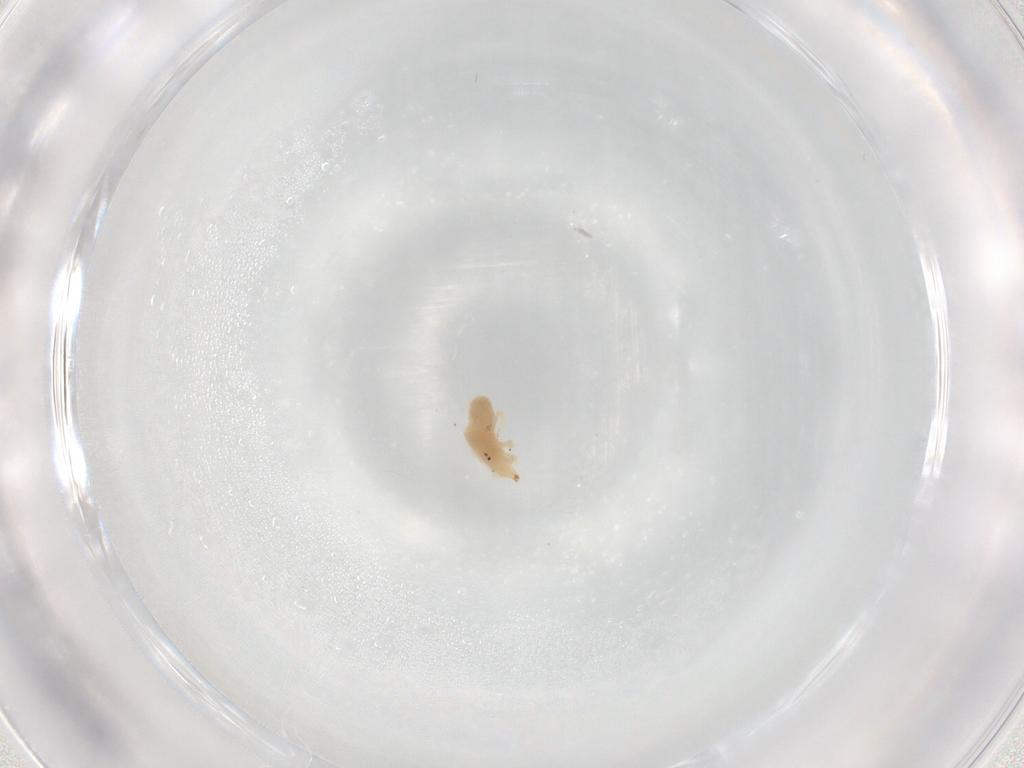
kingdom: Animalia
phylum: Arthropoda
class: Arachnida
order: Trombidiformes
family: Bdellidae
